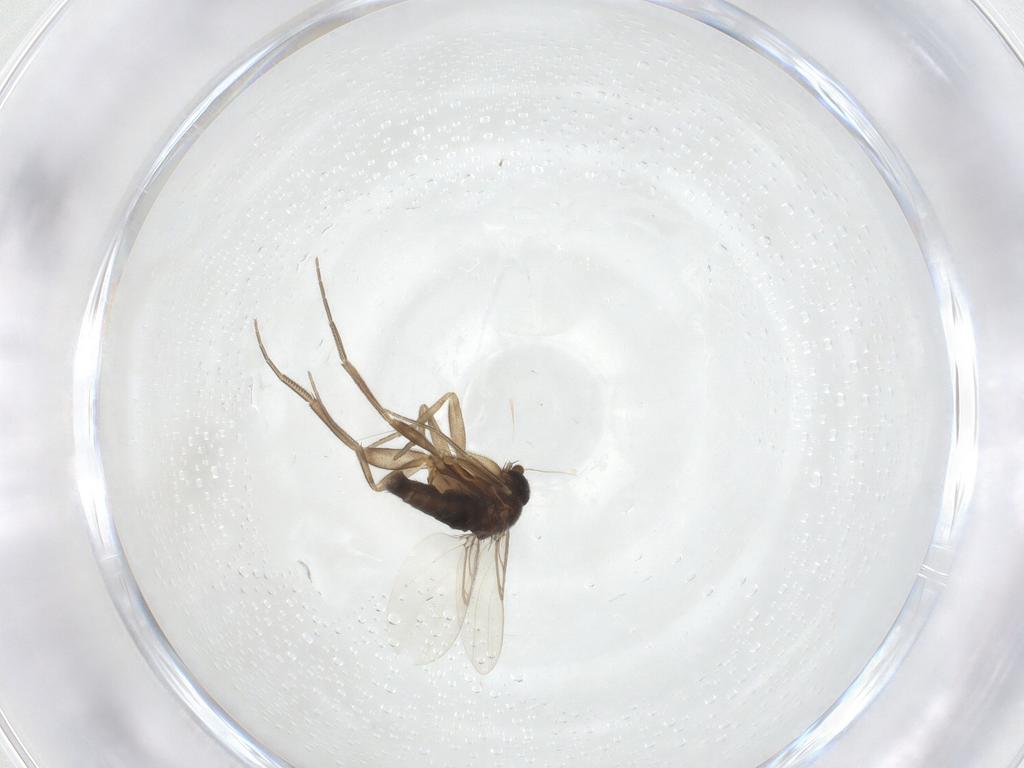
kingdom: Animalia
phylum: Arthropoda
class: Insecta
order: Diptera
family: Phoridae
